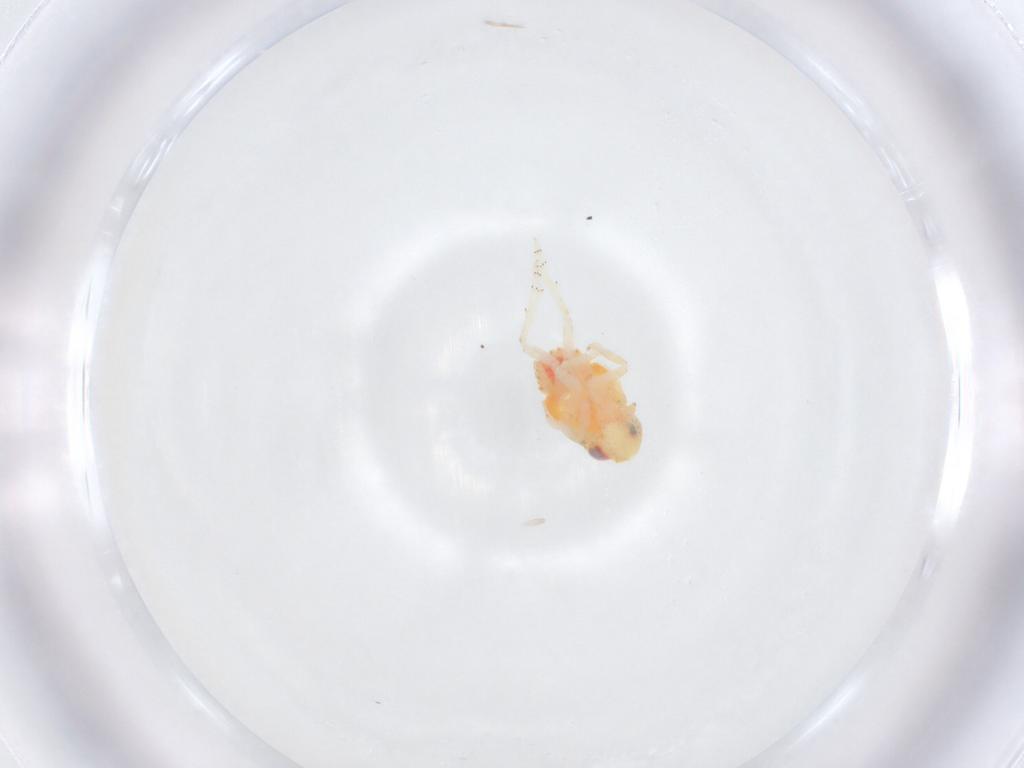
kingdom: Animalia
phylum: Arthropoda
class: Insecta
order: Hemiptera
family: Issidae
